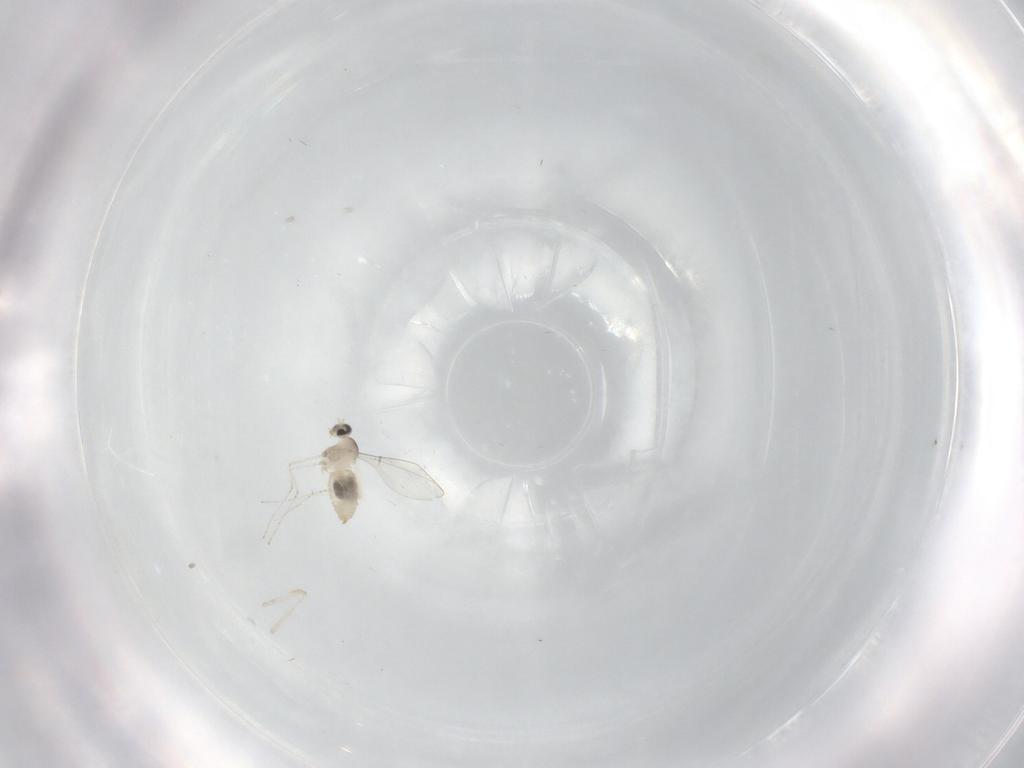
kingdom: Animalia
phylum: Arthropoda
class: Insecta
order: Diptera
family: Cecidomyiidae
